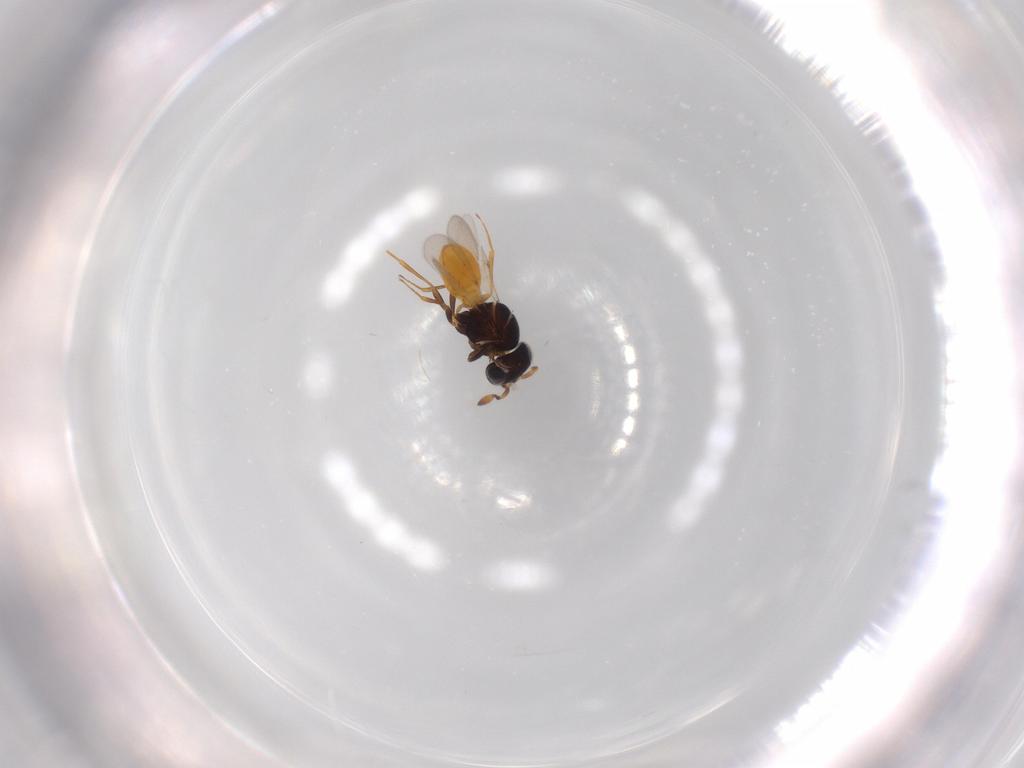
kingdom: Animalia
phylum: Arthropoda
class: Insecta
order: Hymenoptera
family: Scelionidae
